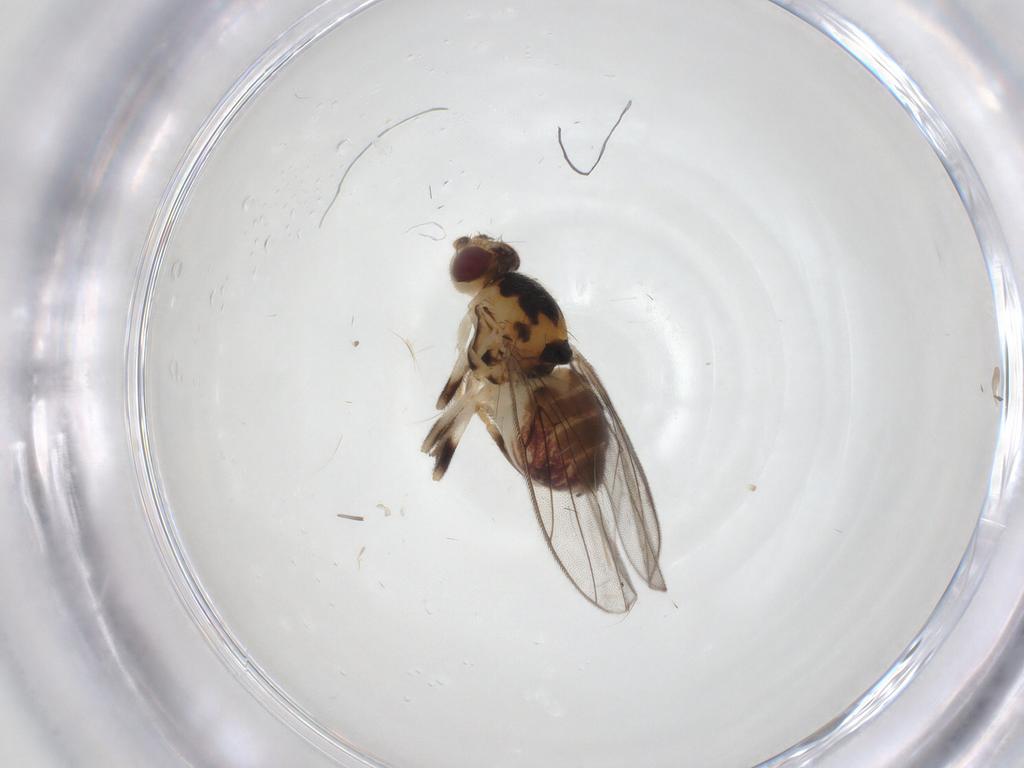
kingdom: Animalia
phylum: Arthropoda
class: Insecta
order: Diptera
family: Chloropidae
